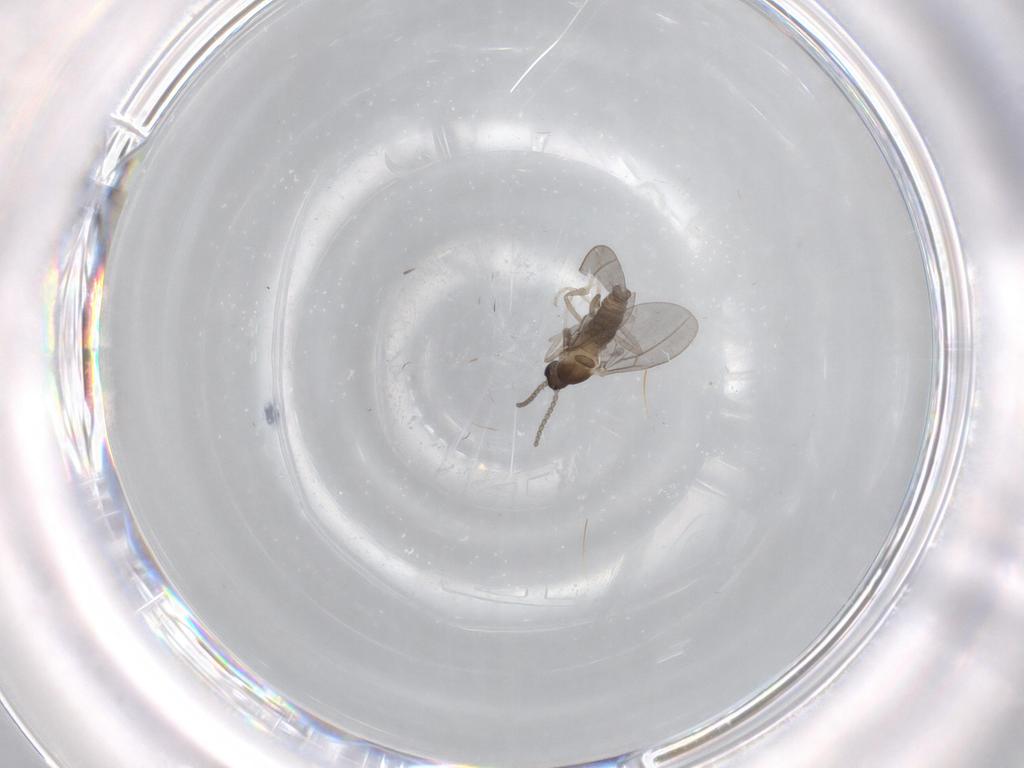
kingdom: Animalia
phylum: Arthropoda
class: Insecta
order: Diptera
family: Cecidomyiidae
